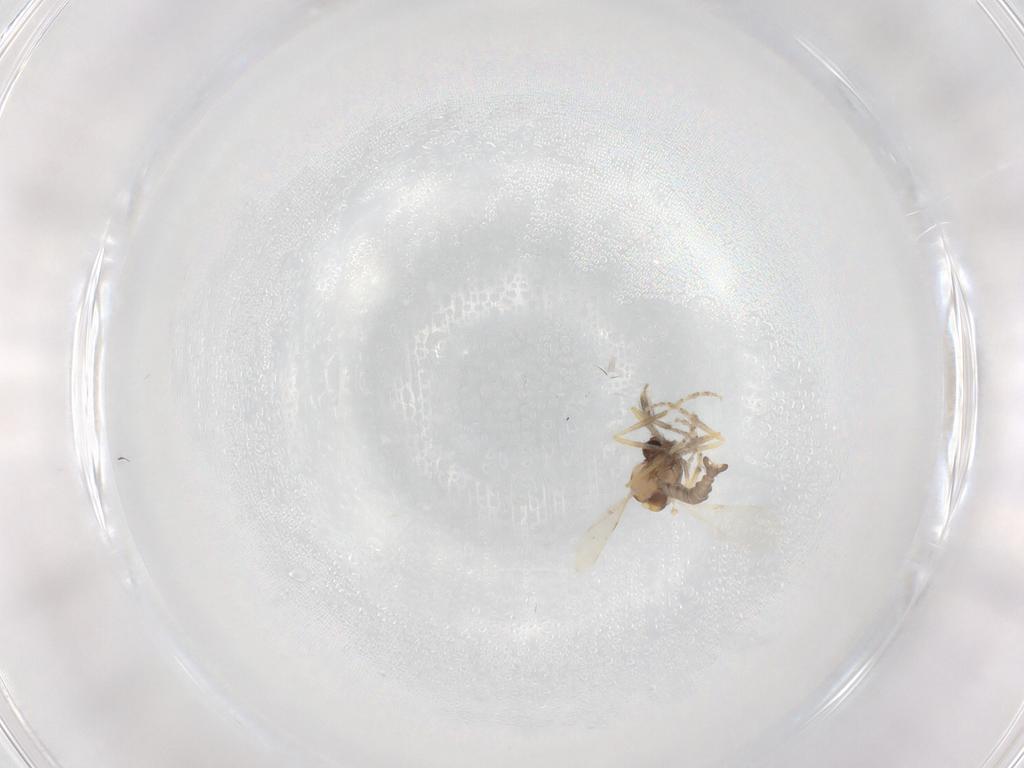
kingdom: Animalia
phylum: Arthropoda
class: Insecta
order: Diptera
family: Ceratopogonidae
